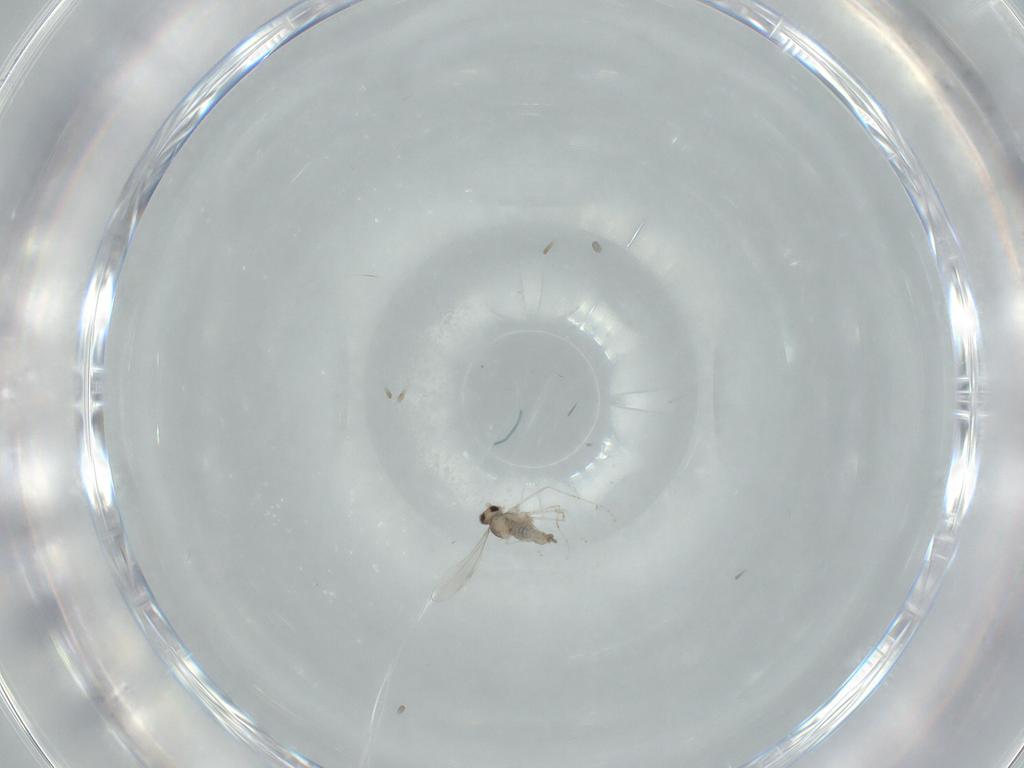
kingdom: Animalia
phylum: Arthropoda
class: Insecta
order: Diptera
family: Cecidomyiidae
